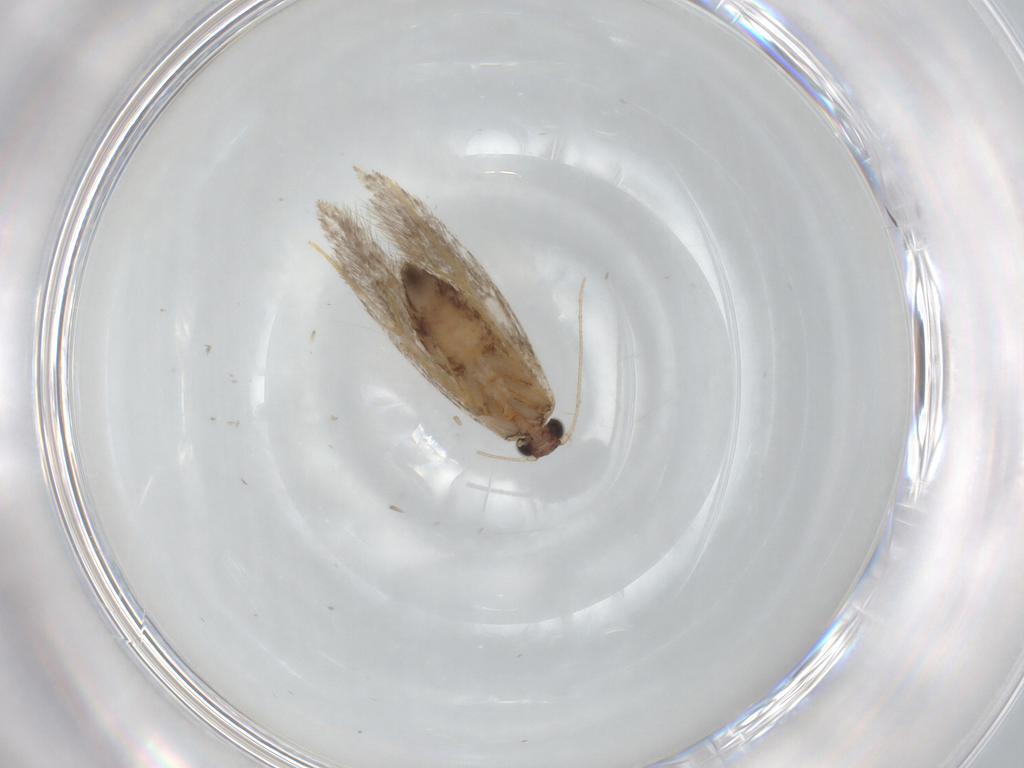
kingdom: Animalia
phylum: Arthropoda
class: Insecta
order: Lepidoptera
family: Tineidae
